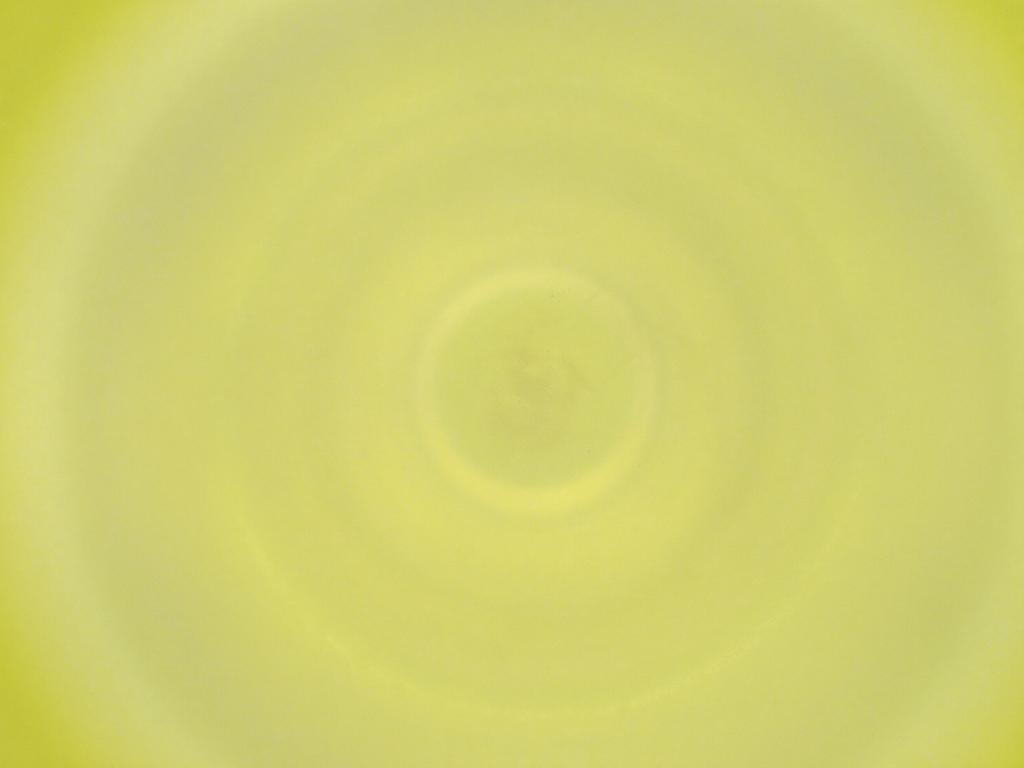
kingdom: Animalia
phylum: Arthropoda
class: Insecta
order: Diptera
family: Cecidomyiidae
